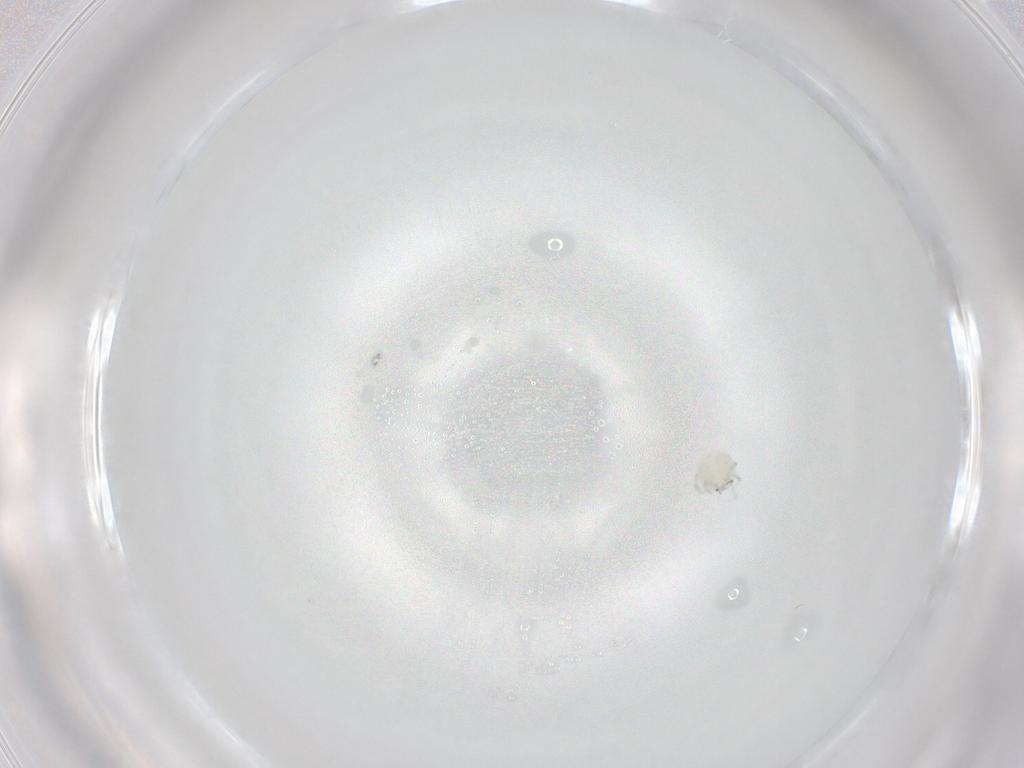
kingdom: Animalia
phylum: Arthropoda
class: Arachnida
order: Trombidiformes
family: Arrenuridae
